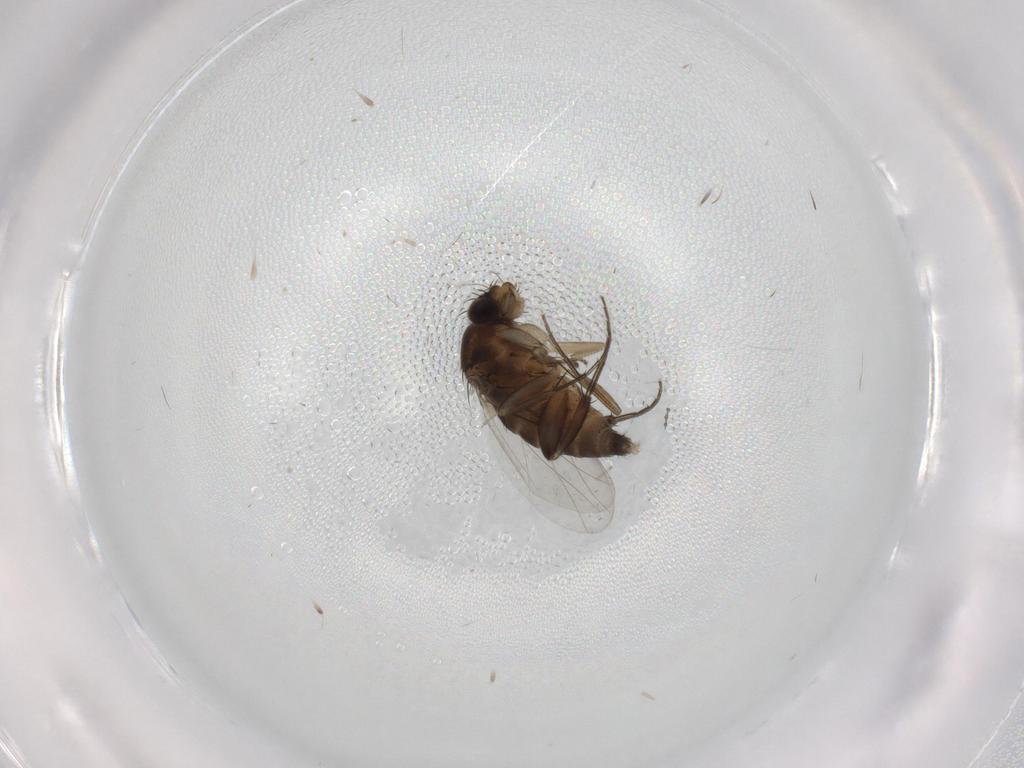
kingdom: Animalia
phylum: Arthropoda
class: Insecta
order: Diptera
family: Phoridae
